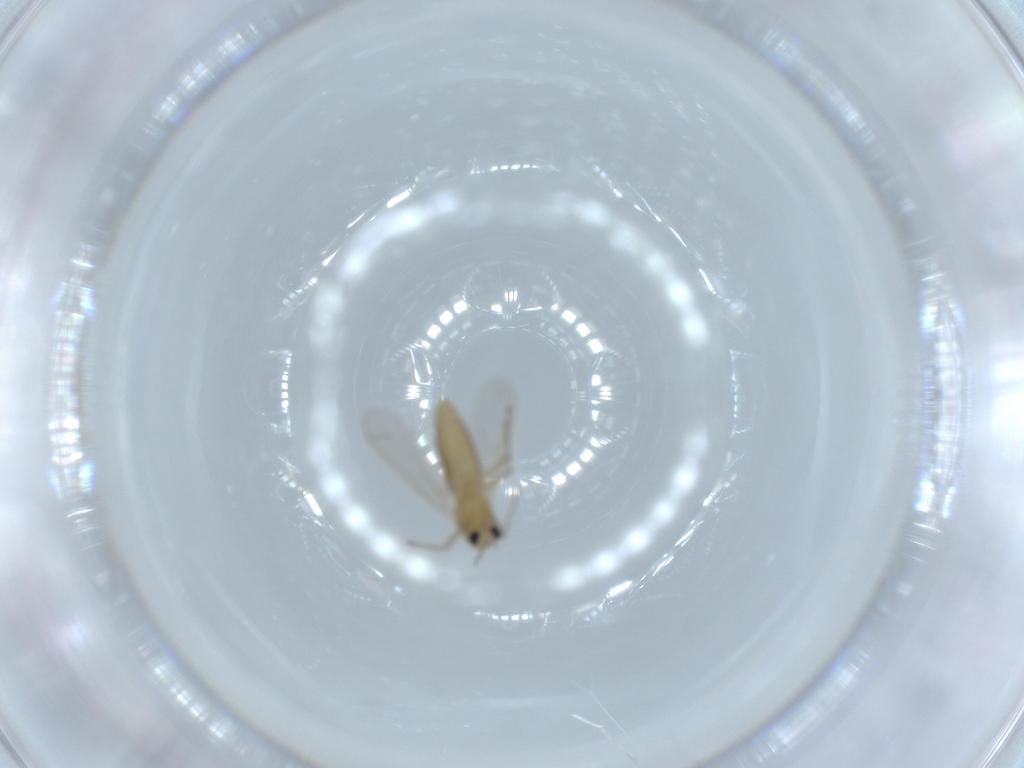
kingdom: Animalia
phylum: Arthropoda
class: Insecta
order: Diptera
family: Chironomidae
